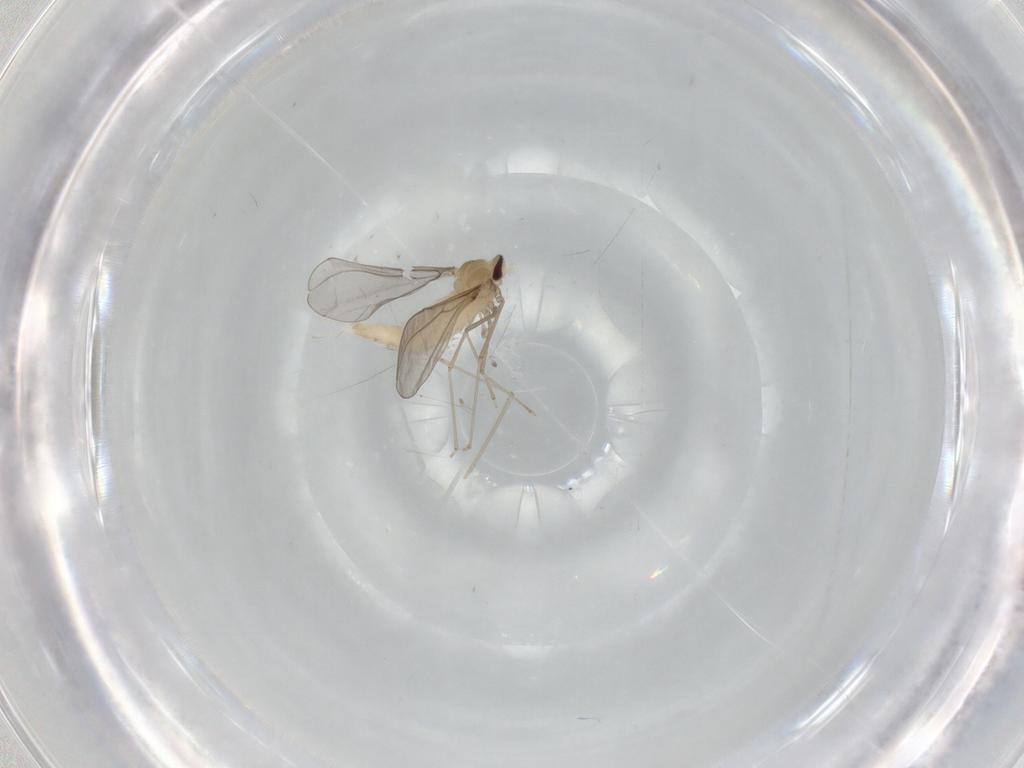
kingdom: Animalia
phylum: Arthropoda
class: Insecta
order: Diptera
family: Cecidomyiidae
